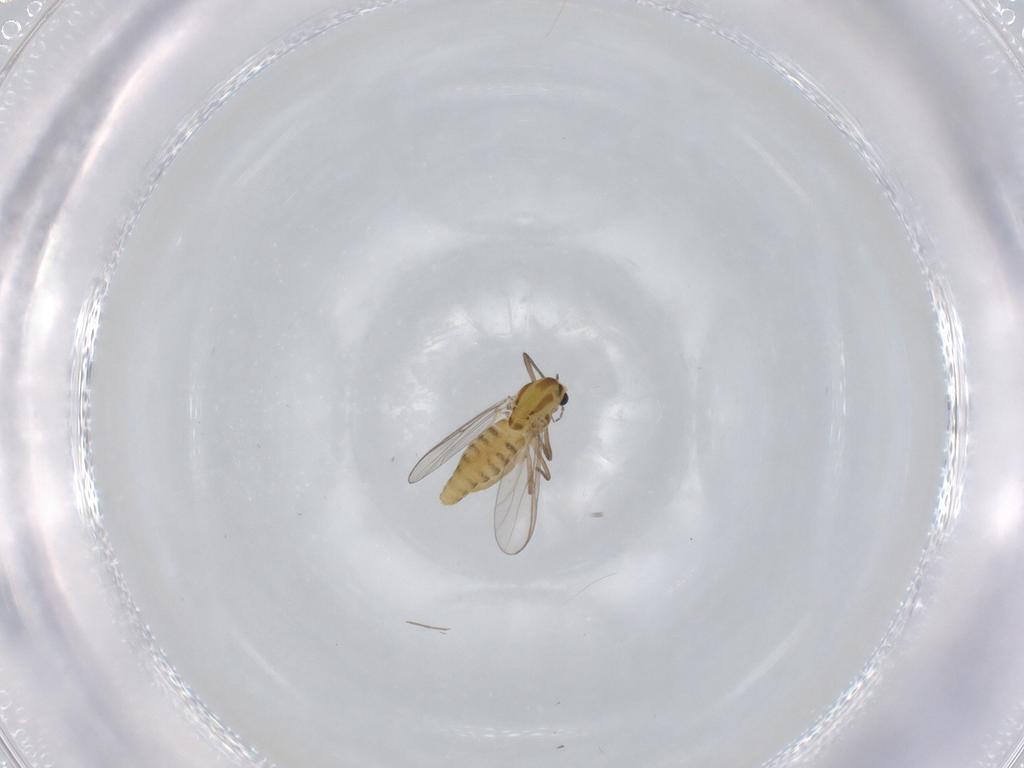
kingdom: Animalia
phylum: Arthropoda
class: Insecta
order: Diptera
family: Chironomidae
